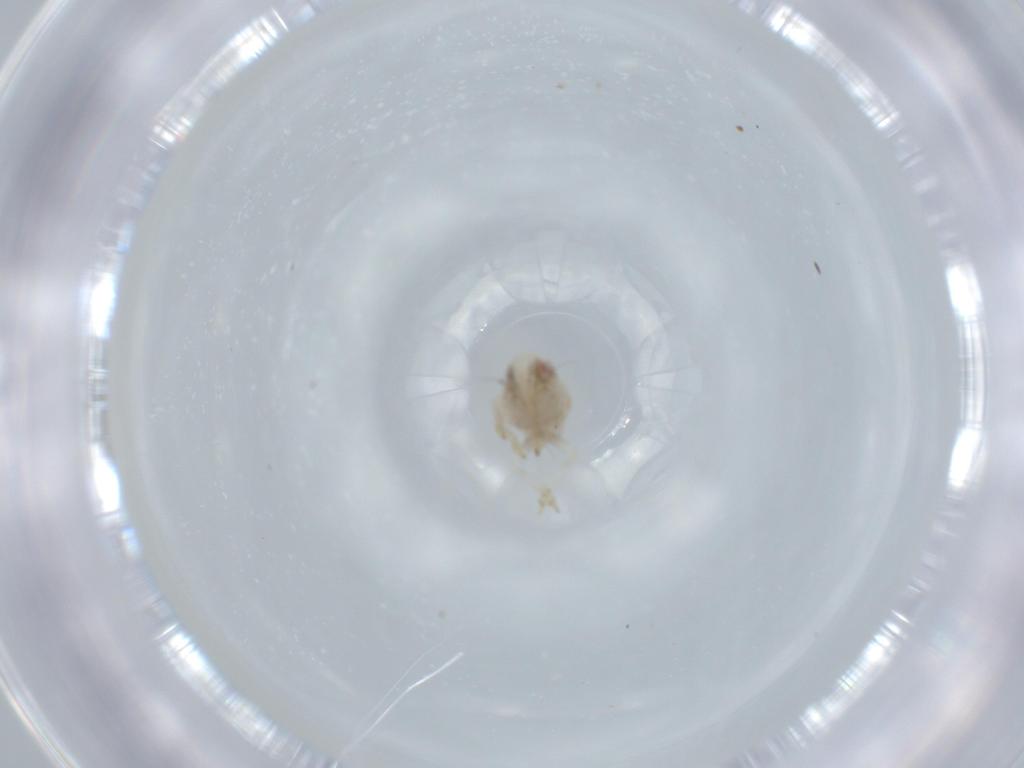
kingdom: Animalia
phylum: Arthropoda
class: Insecta
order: Hemiptera
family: Acanaloniidae
